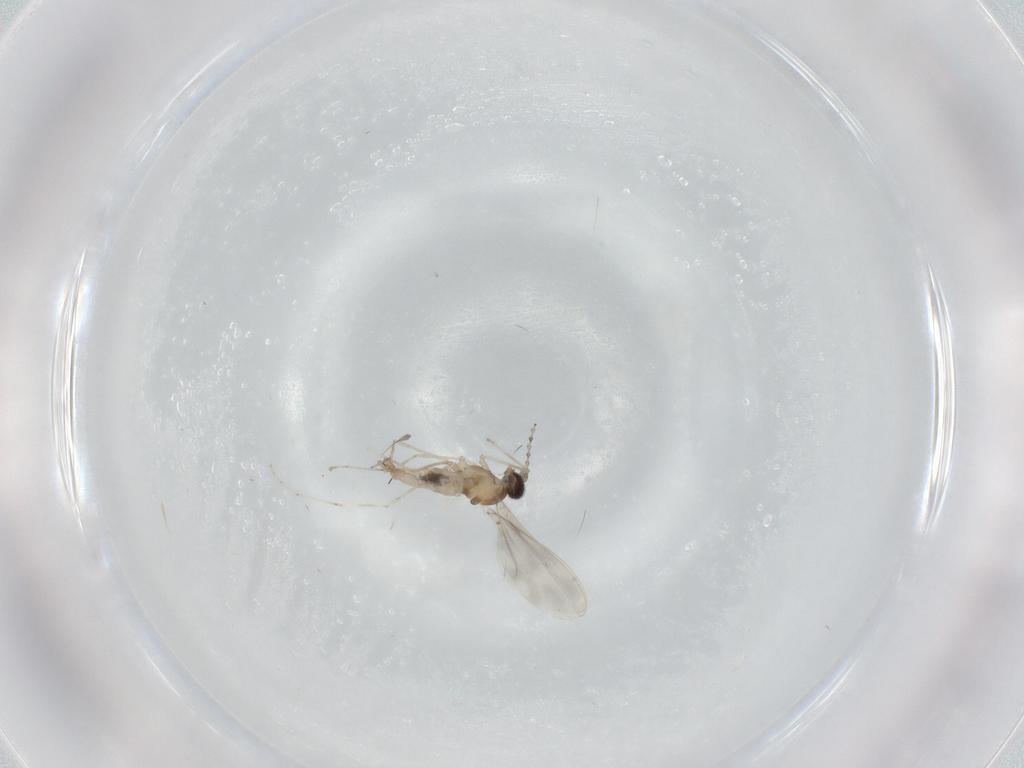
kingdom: Animalia
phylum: Arthropoda
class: Insecta
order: Diptera
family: Cecidomyiidae
